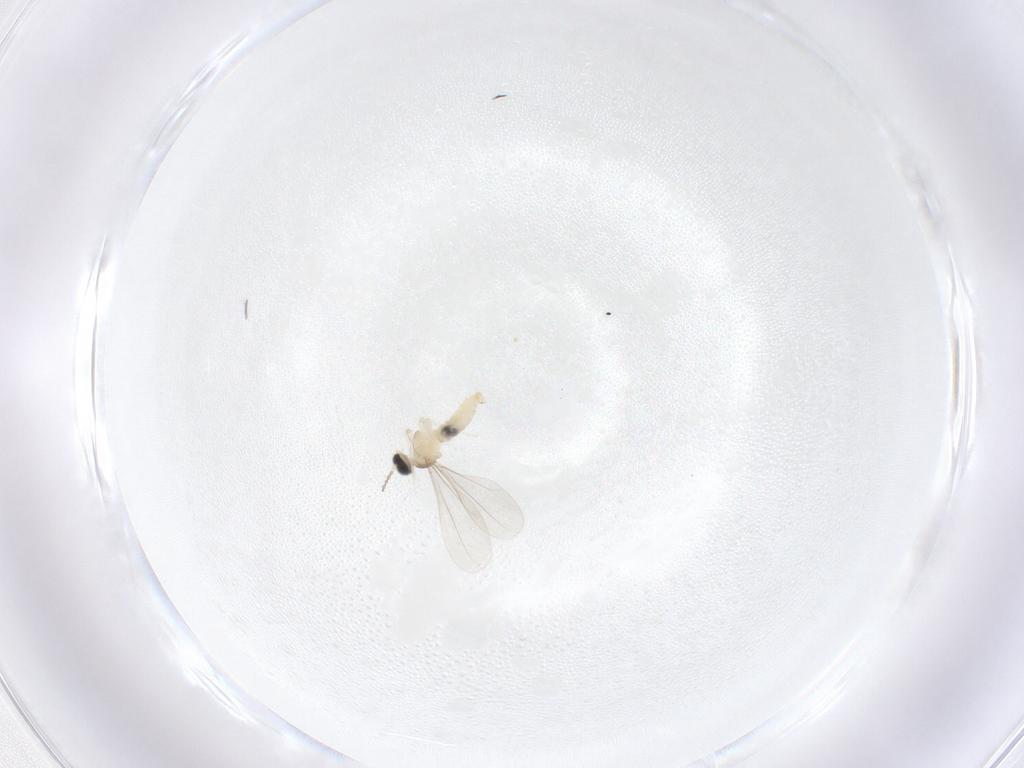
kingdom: Animalia
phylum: Arthropoda
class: Insecta
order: Diptera
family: Cecidomyiidae
